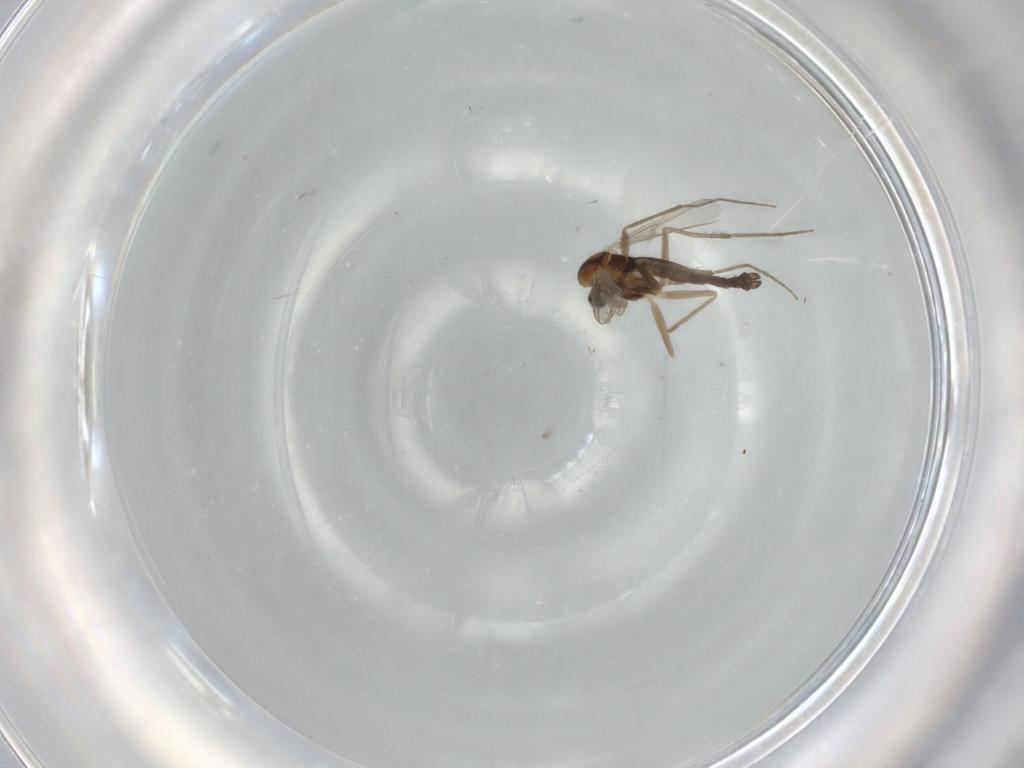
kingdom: Animalia
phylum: Arthropoda
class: Insecta
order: Diptera
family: Chironomidae
